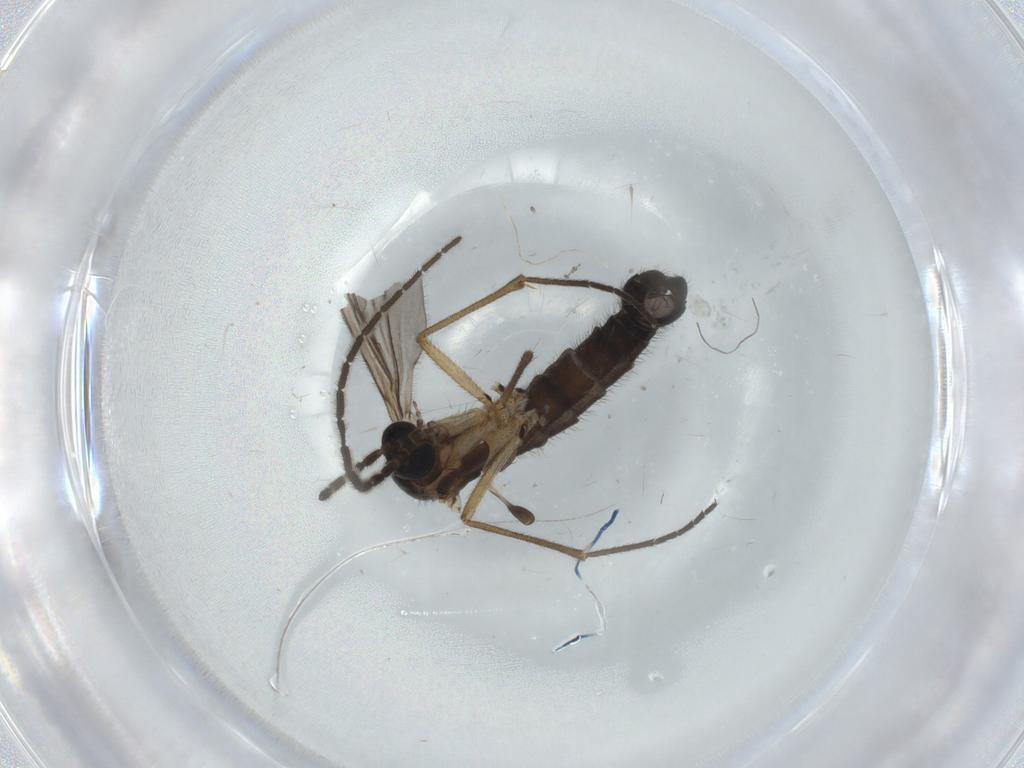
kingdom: Animalia
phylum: Arthropoda
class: Insecta
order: Diptera
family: Sciaridae
